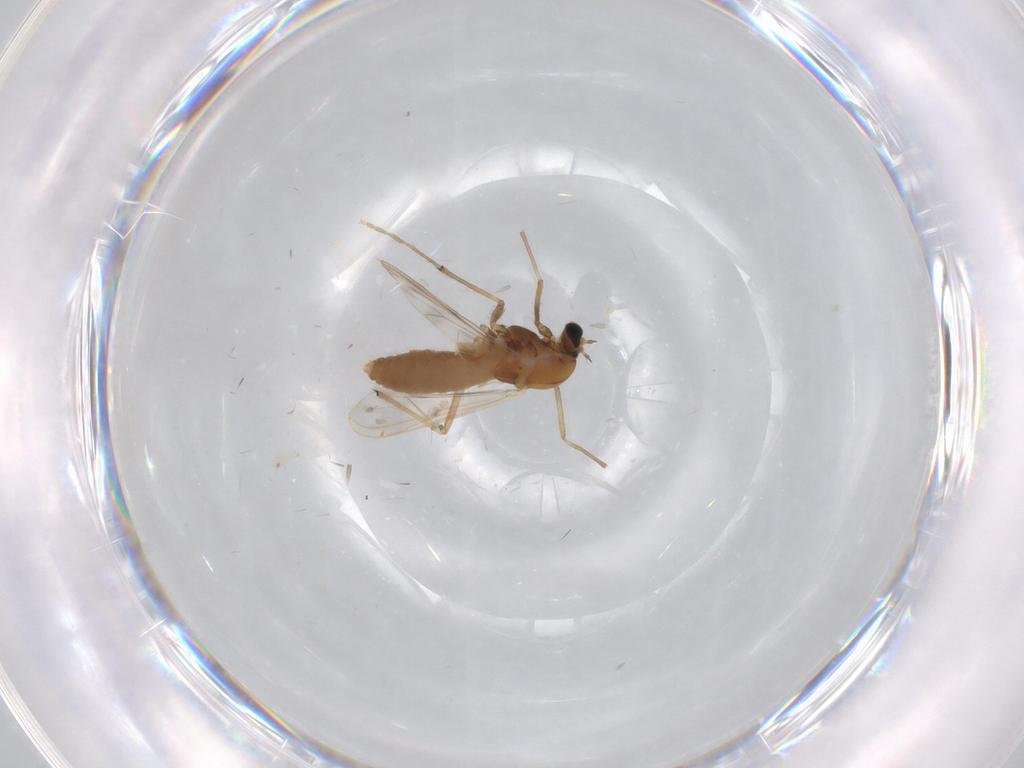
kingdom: Animalia
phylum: Arthropoda
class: Insecta
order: Diptera
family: Chironomidae
